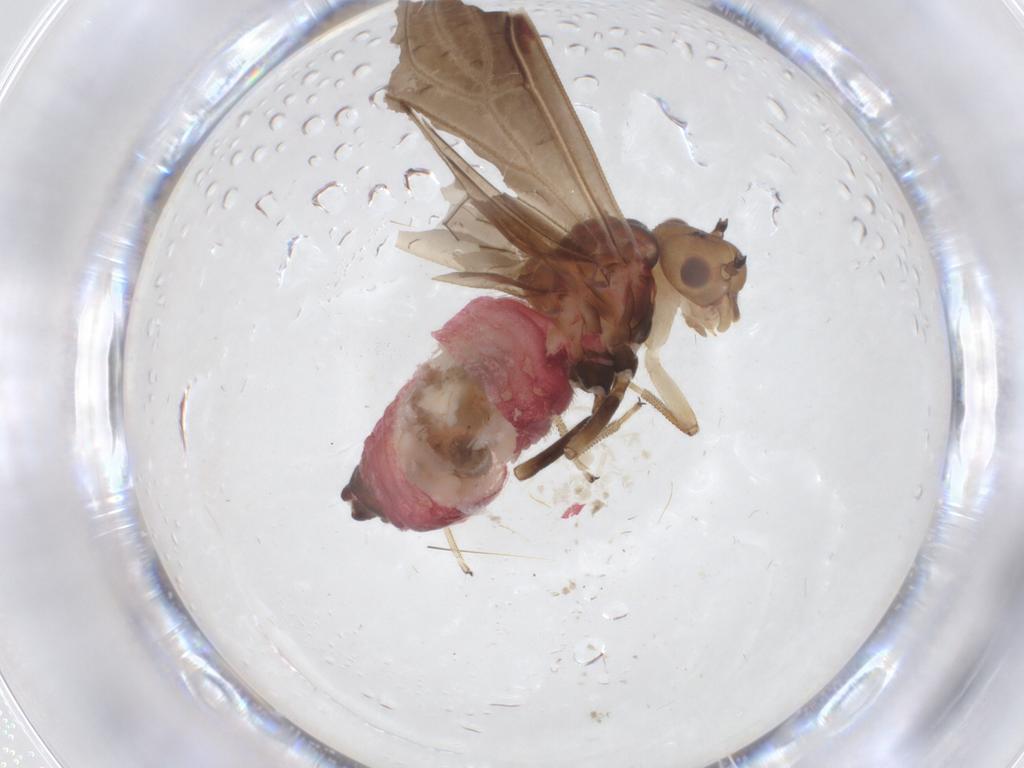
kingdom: Animalia
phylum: Arthropoda
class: Insecta
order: Psocodea
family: Amphipsocidae
